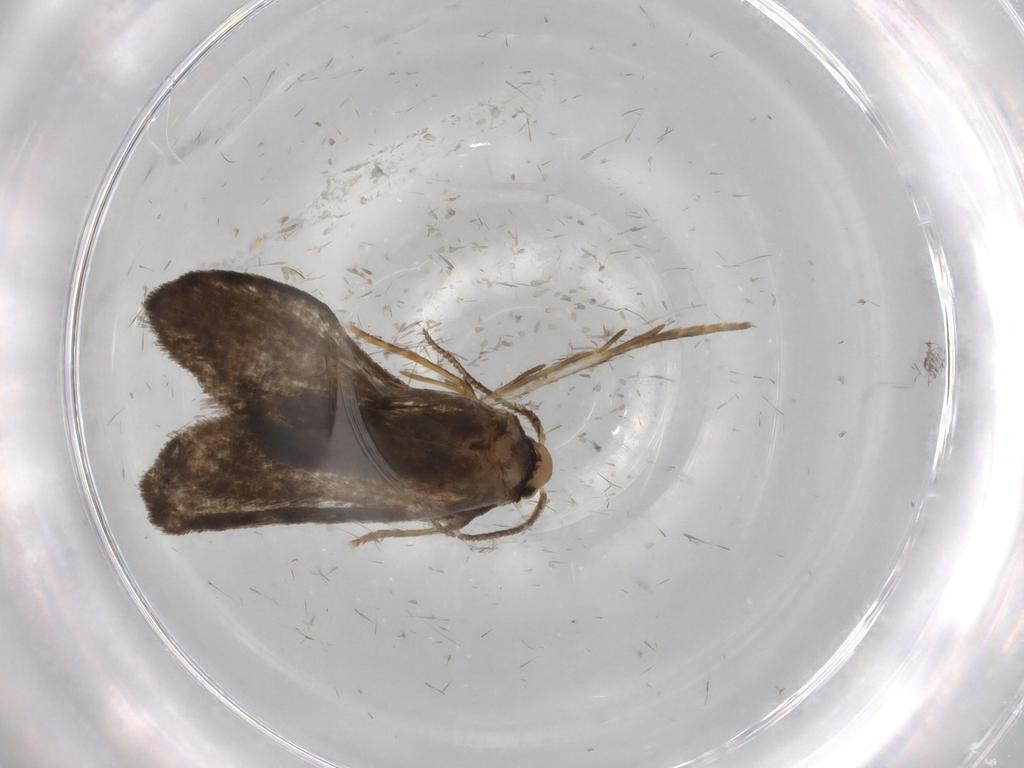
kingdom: Animalia
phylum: Arthropoda
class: Insecta
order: Lepidoptera
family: Psychidae
